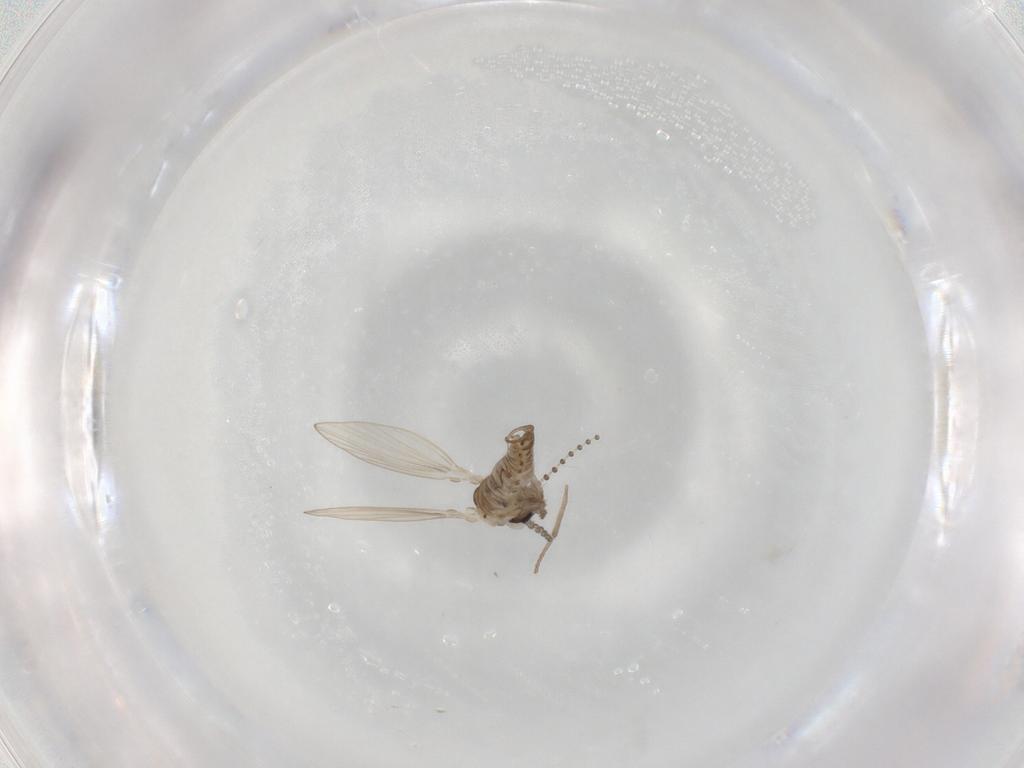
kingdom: Animalia
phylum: Arthropoda
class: Insecta
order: Diptera
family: Psychodidae
